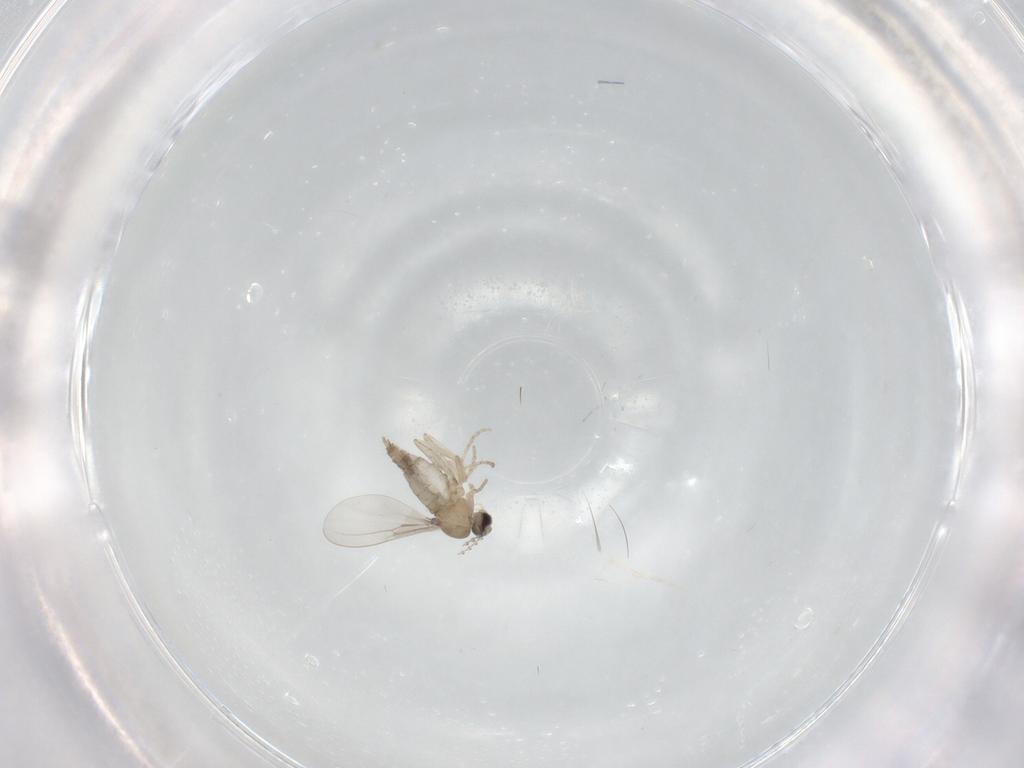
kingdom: Animalia
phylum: Arthropoda
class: Insecta
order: Diptera
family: Cecidomyiidae
